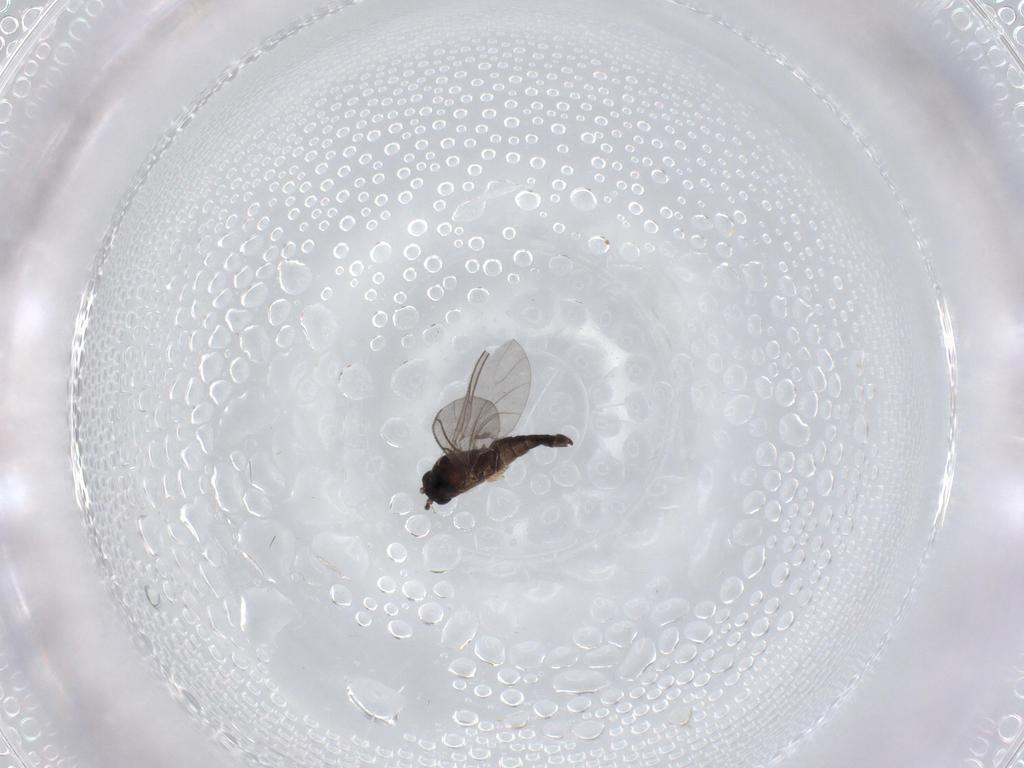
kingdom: Animalia
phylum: Arthropoda
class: Insecta
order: Diptera
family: Sciaridae
